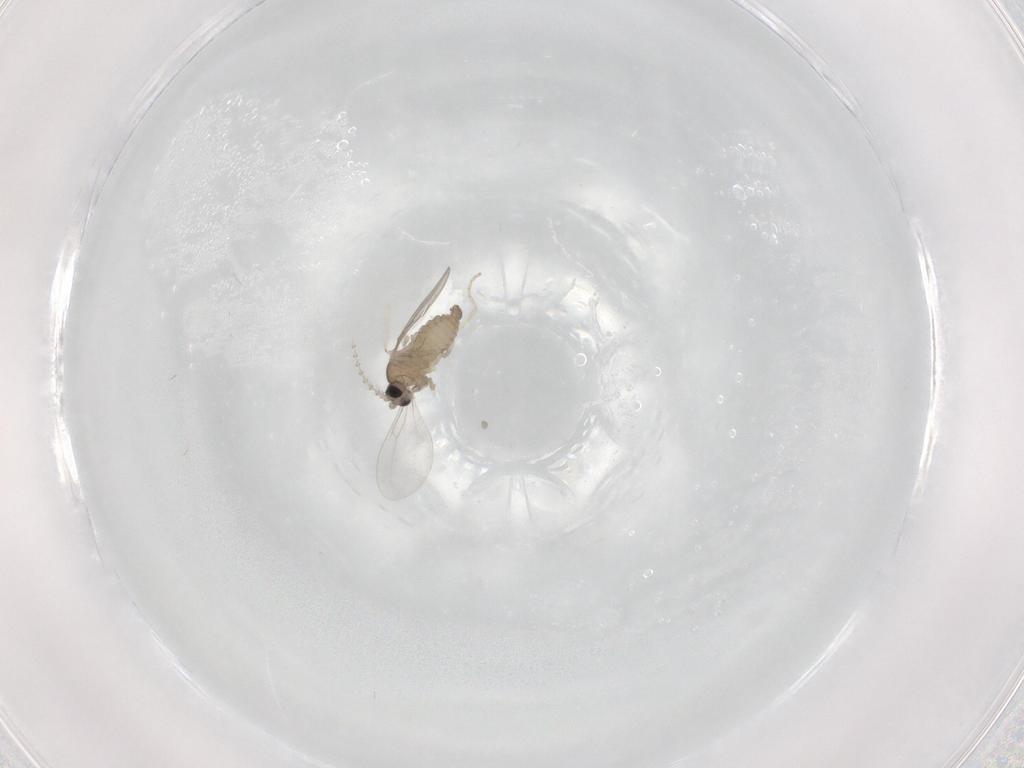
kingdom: Animalia
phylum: Arthropoda
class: Insecta
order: Diptera
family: Cecidomyiidae
